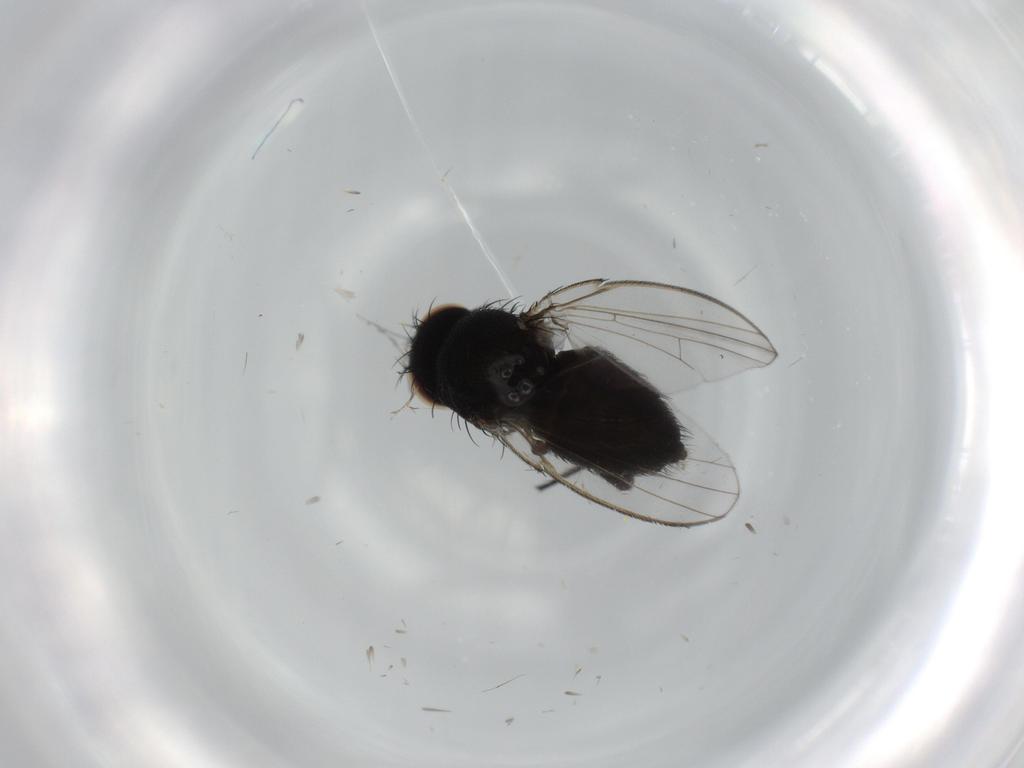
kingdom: Animalia
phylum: Arthropoda
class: Insecta
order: Diptera
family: Milichiidae
